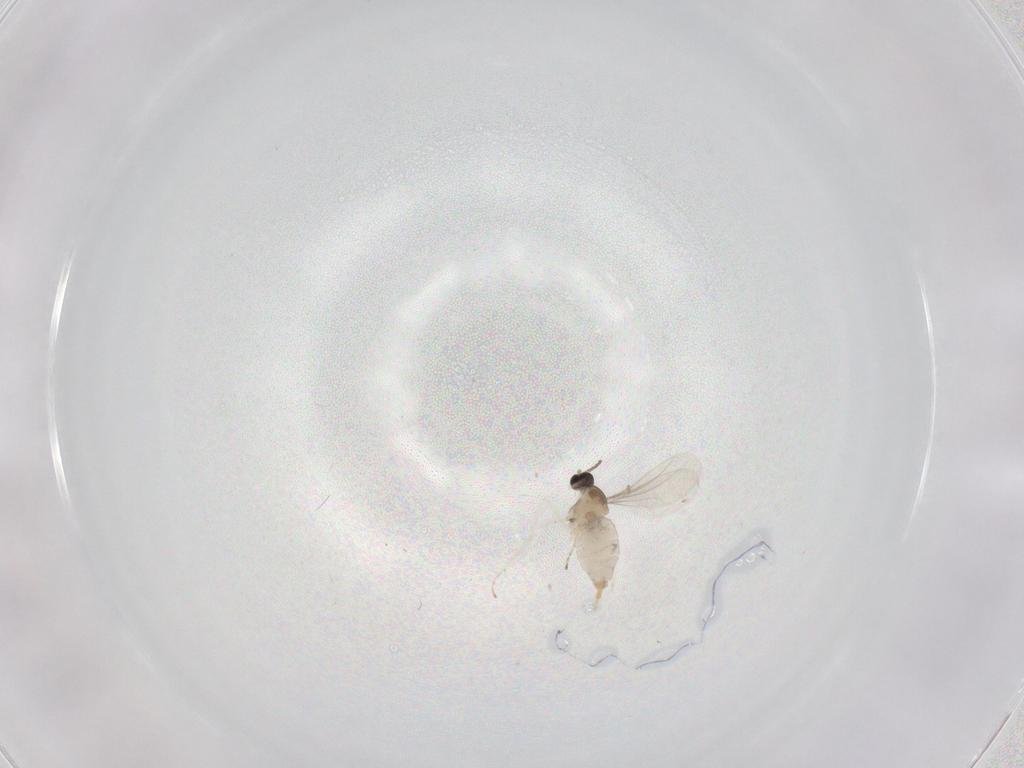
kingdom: Animalia
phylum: Arthropoda
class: Insecta
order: Diptera
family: Cecidomyiidae
